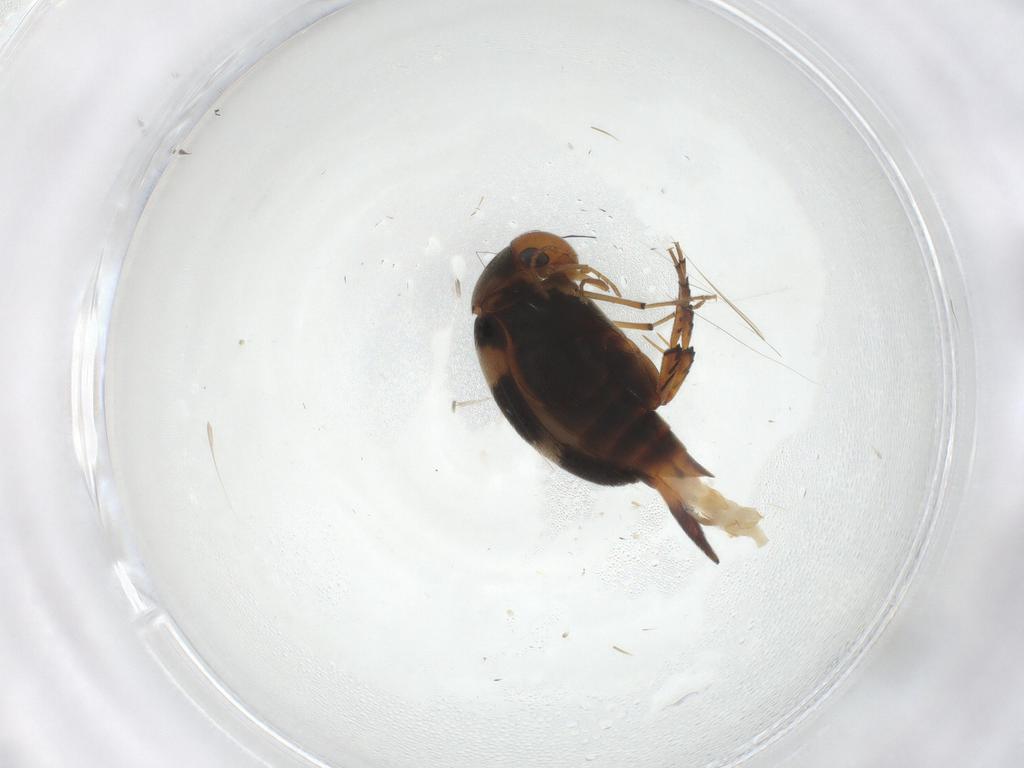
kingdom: Animalia
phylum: Arthropoda
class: Insecta
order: Coleoptera
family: Mordellidae
